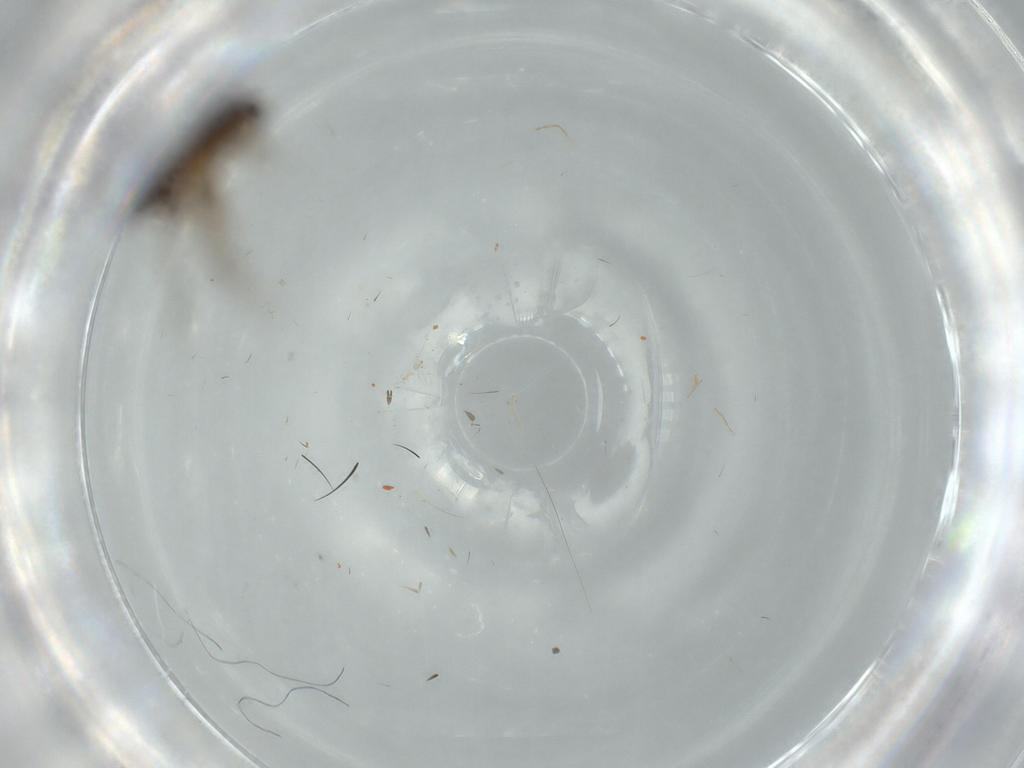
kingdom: Animalia
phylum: Arthropoda
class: Insecta
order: Hemiptera
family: Ceratocombidae
